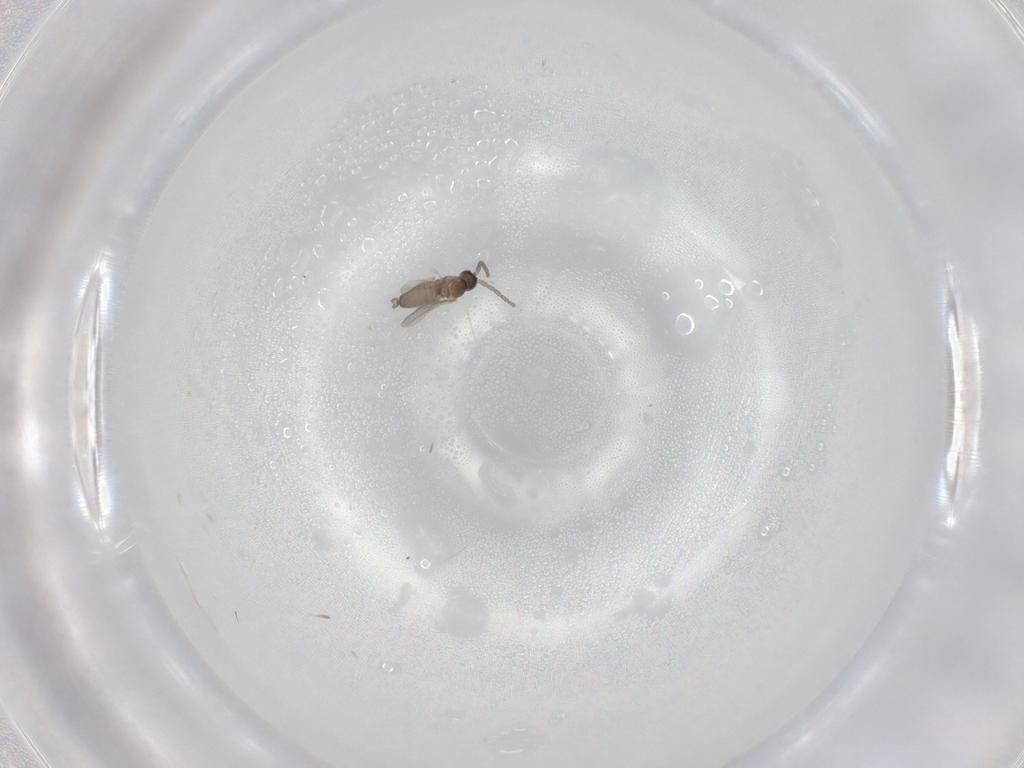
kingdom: Animalia
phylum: Arthropoda
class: Insecta
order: Diptera
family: Cecidomyiidae
